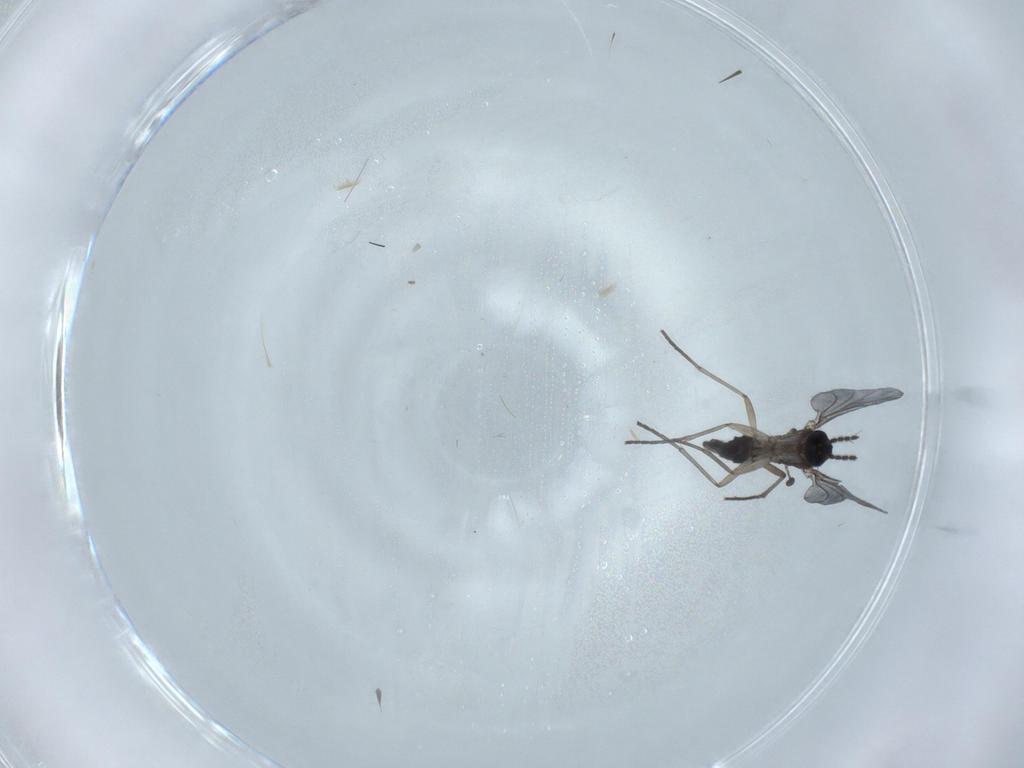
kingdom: Animalia
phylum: Arthropoda
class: Insecta
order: Diptera
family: Sciaridae
